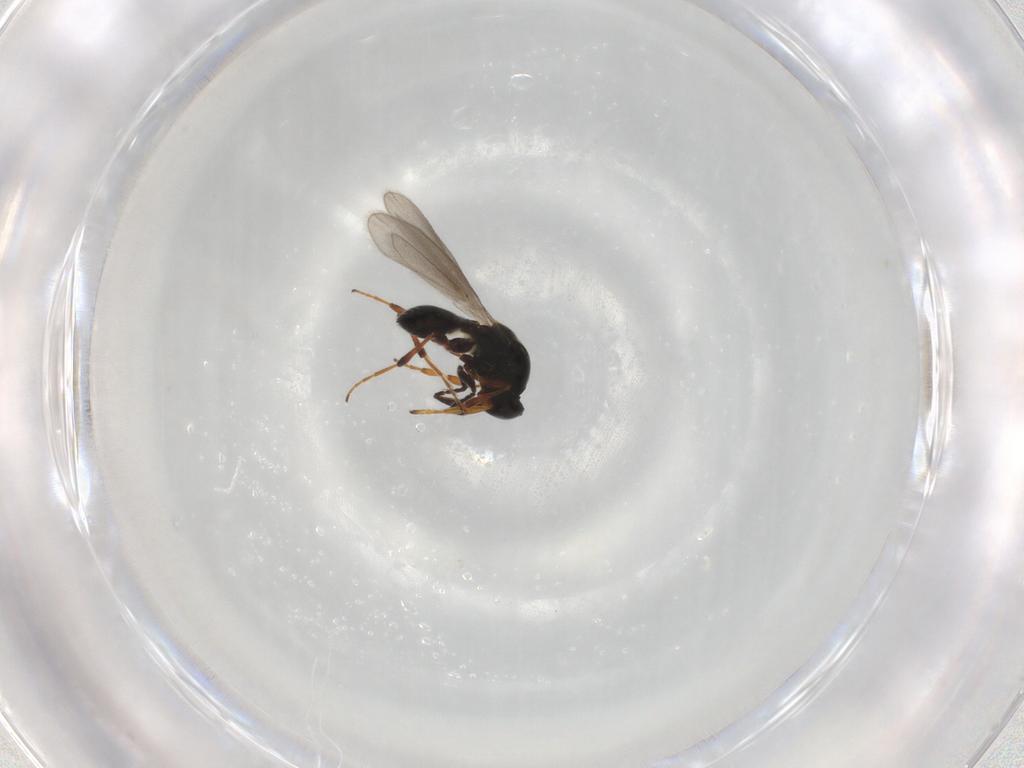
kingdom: Animalia
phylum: Arthropoda
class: Insecta
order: Hymenoptera
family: Platygastridae
